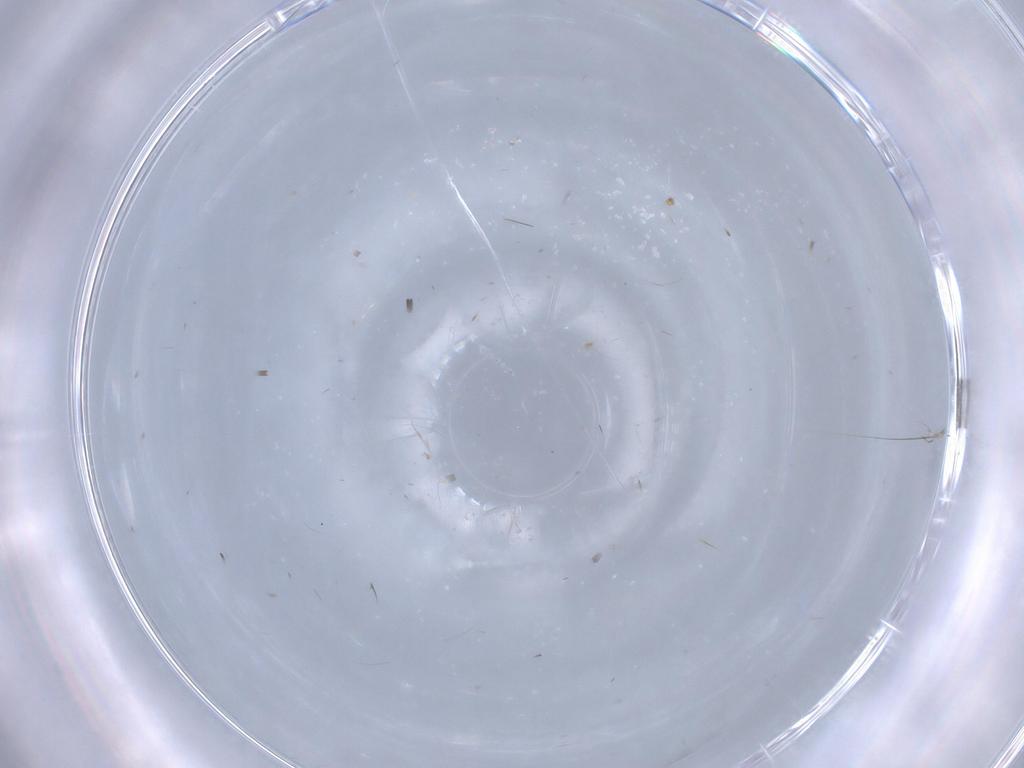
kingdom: Animalia
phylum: Arthropoda
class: Insecta
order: Diptera
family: Chironomidae
